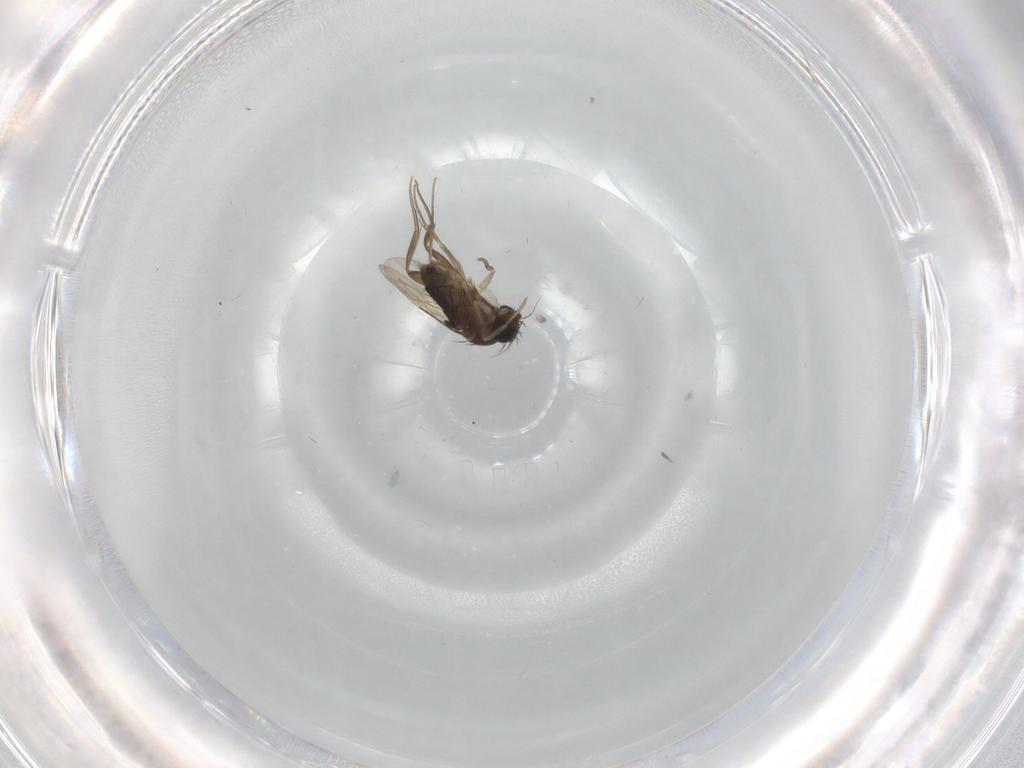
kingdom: Animalia
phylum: Arthropoda
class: Insecta
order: Diptera
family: Phoridae
